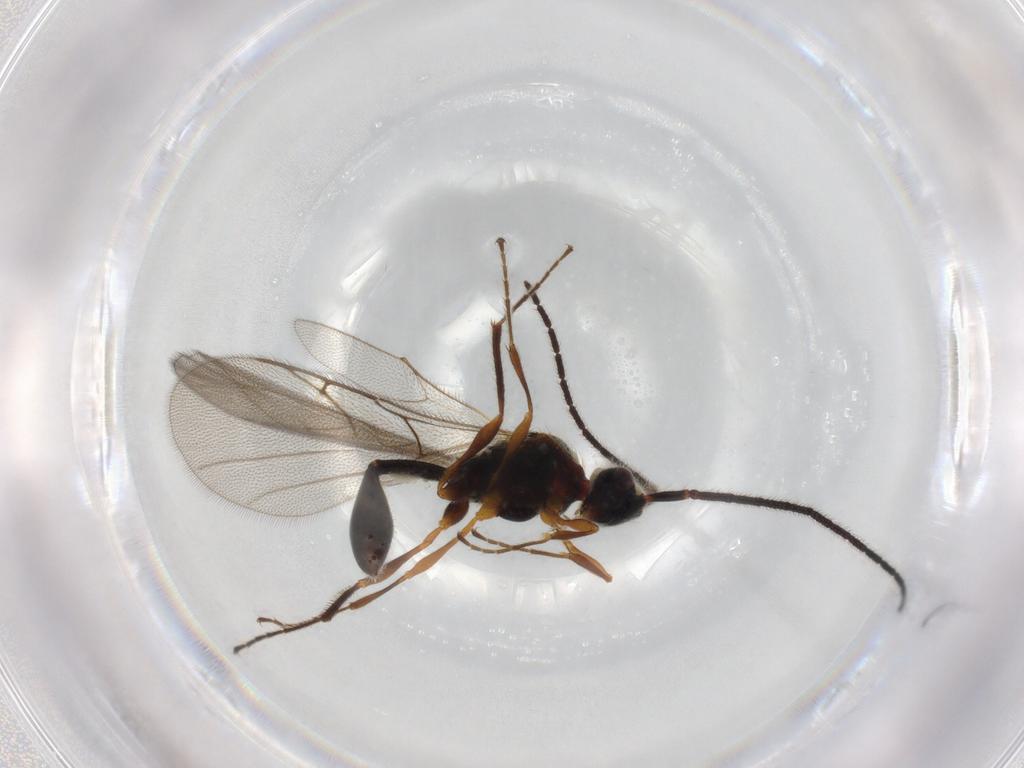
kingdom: Animalia
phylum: Arthropoda
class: Insecta
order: Hymenoptera
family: Diapriidae
